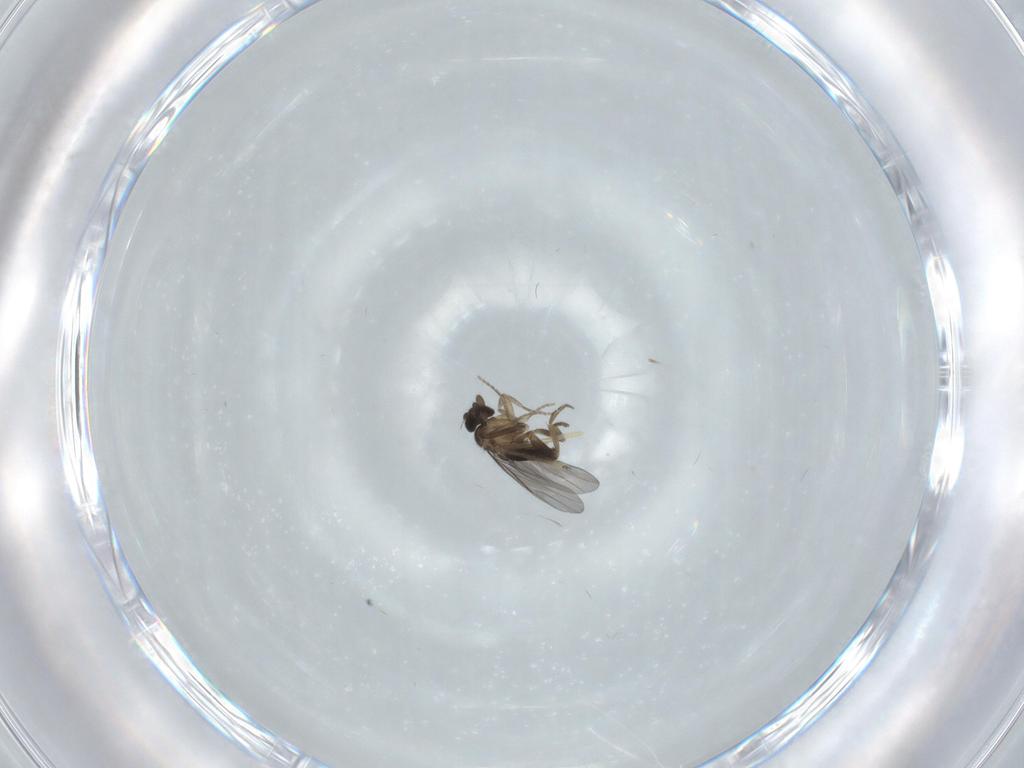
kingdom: Animalia
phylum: Arthropoda
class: Insecta
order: Diptera
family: Chironomidae
